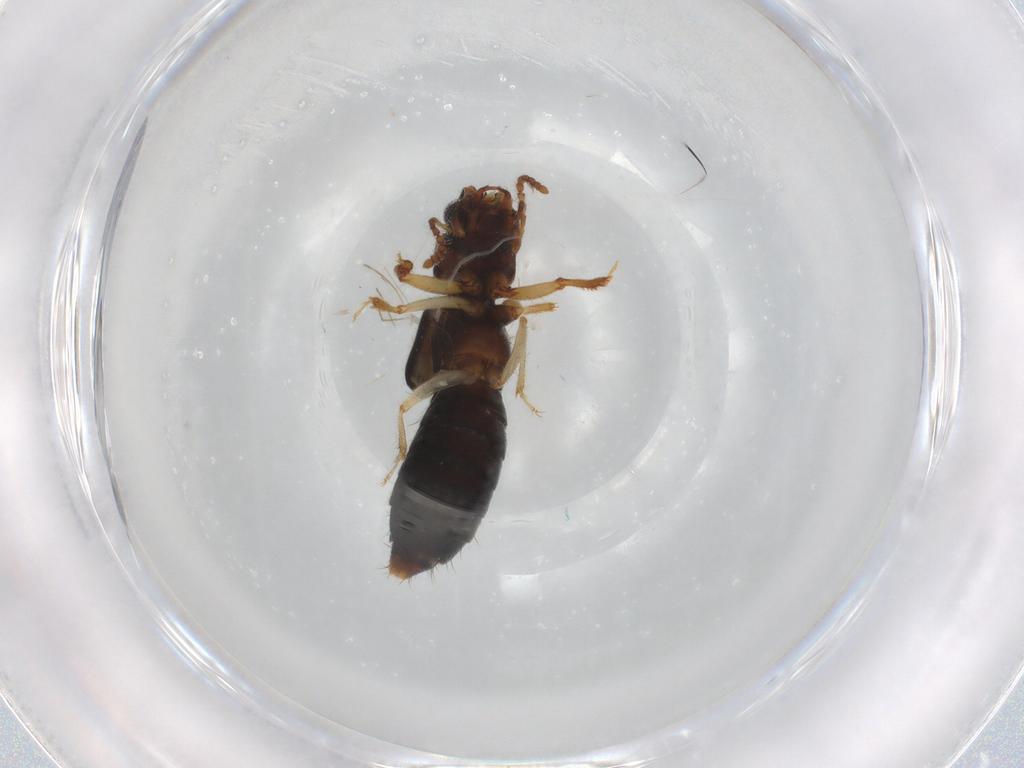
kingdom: Animalia
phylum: Arthropoda
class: Insecta
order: Coleoptera
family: Staphylinidae
